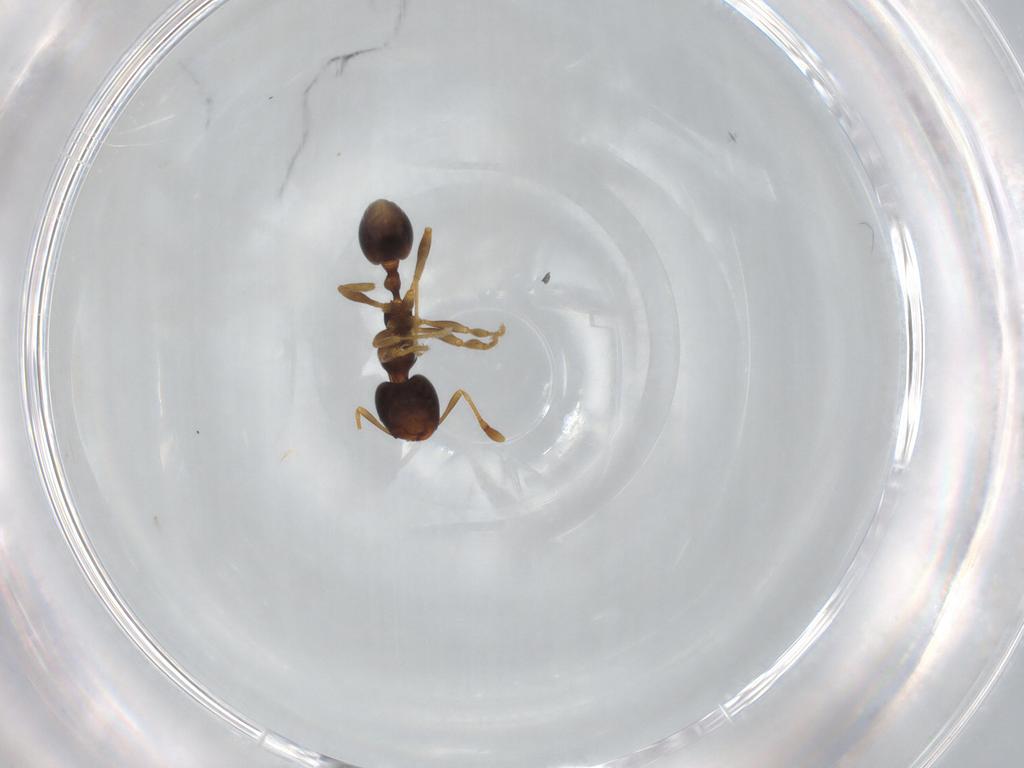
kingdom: Animalia
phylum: Arthropoda
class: Insecta
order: Hymenoptera
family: Formicidae
